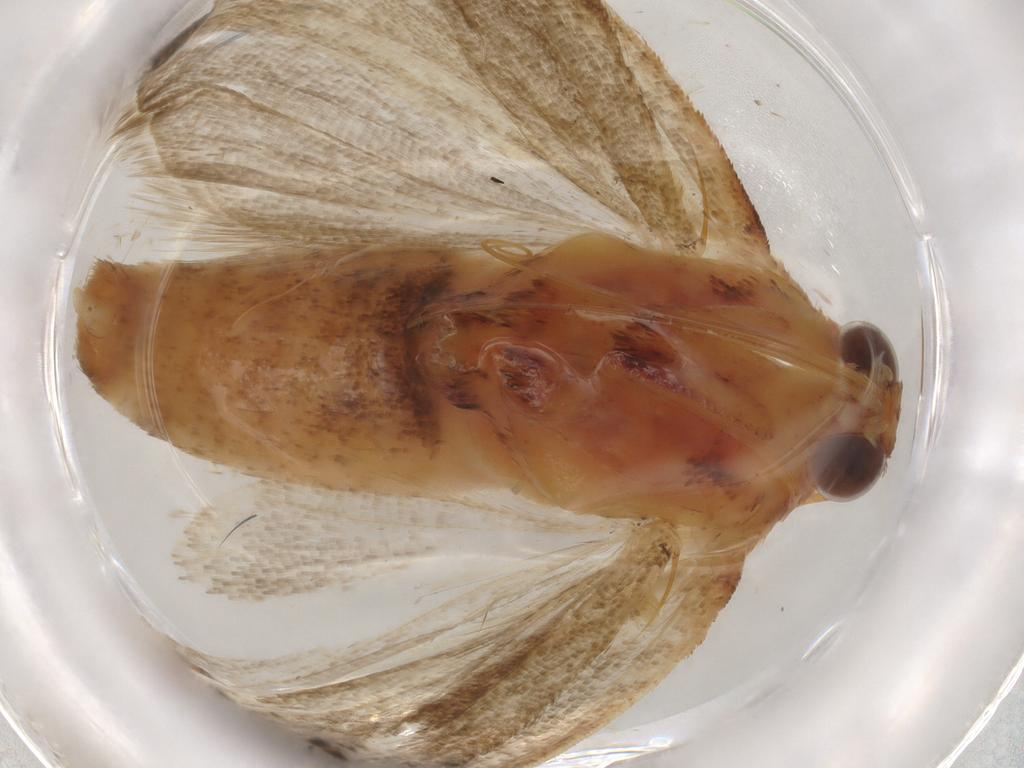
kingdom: Animalia
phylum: Arthropoda
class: Insecta
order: Lepidoptera
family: Pyralidae
